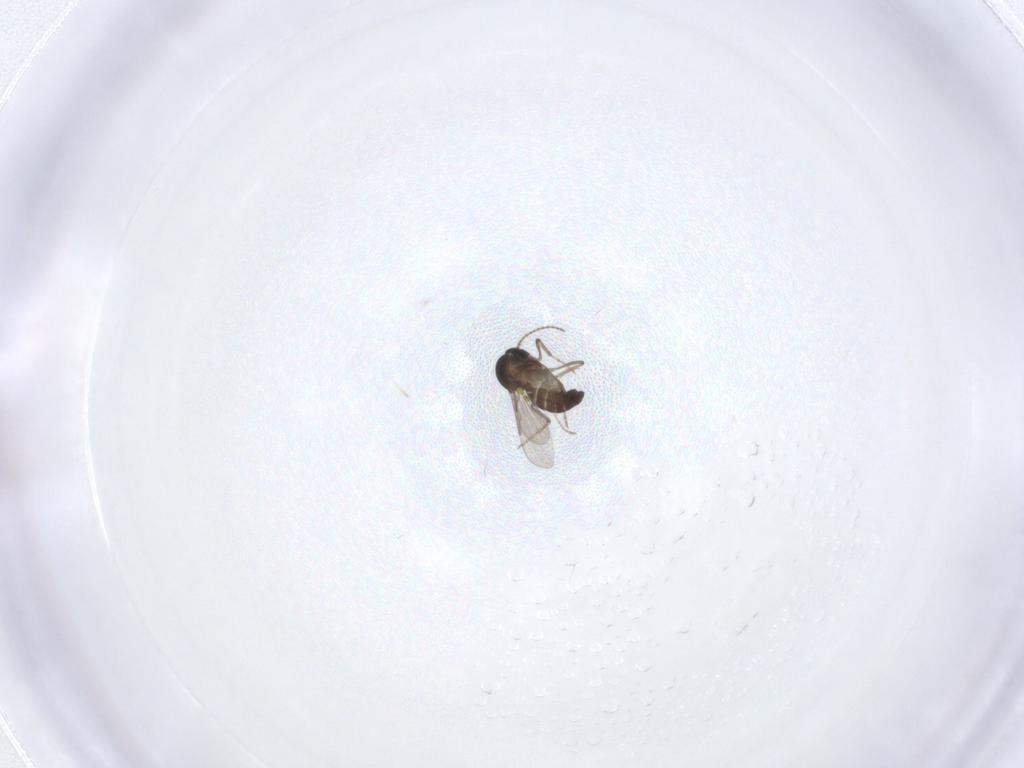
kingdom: Animalia
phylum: Arthropoda
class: Insecta
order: Diptera
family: Ceratopogonidae
